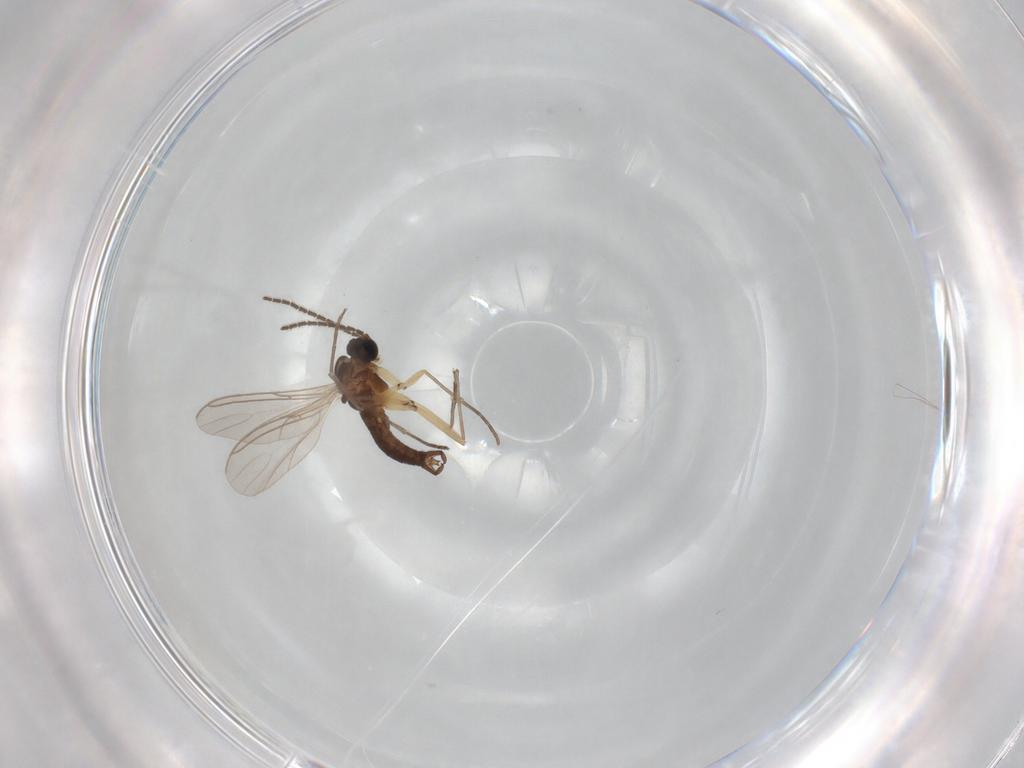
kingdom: Animalia
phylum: Arthropoda
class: Insecta
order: Diptera
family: Sciaridae
